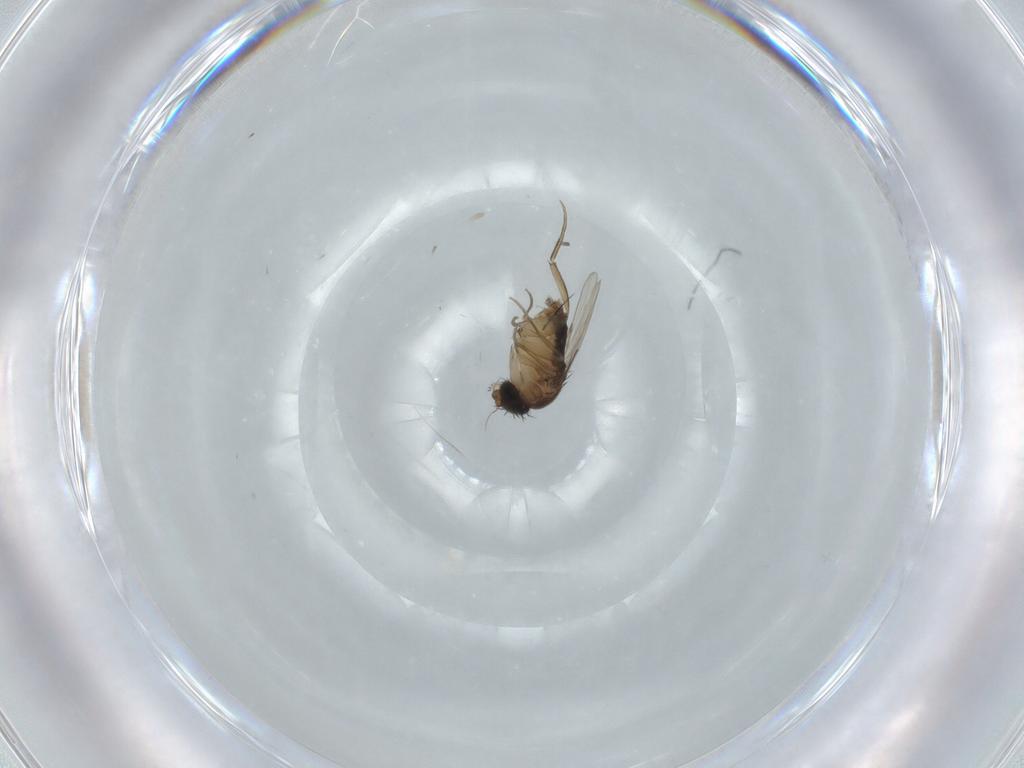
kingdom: Animalia
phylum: Arthropoda
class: Insecta
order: Diptera
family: Phoridae
